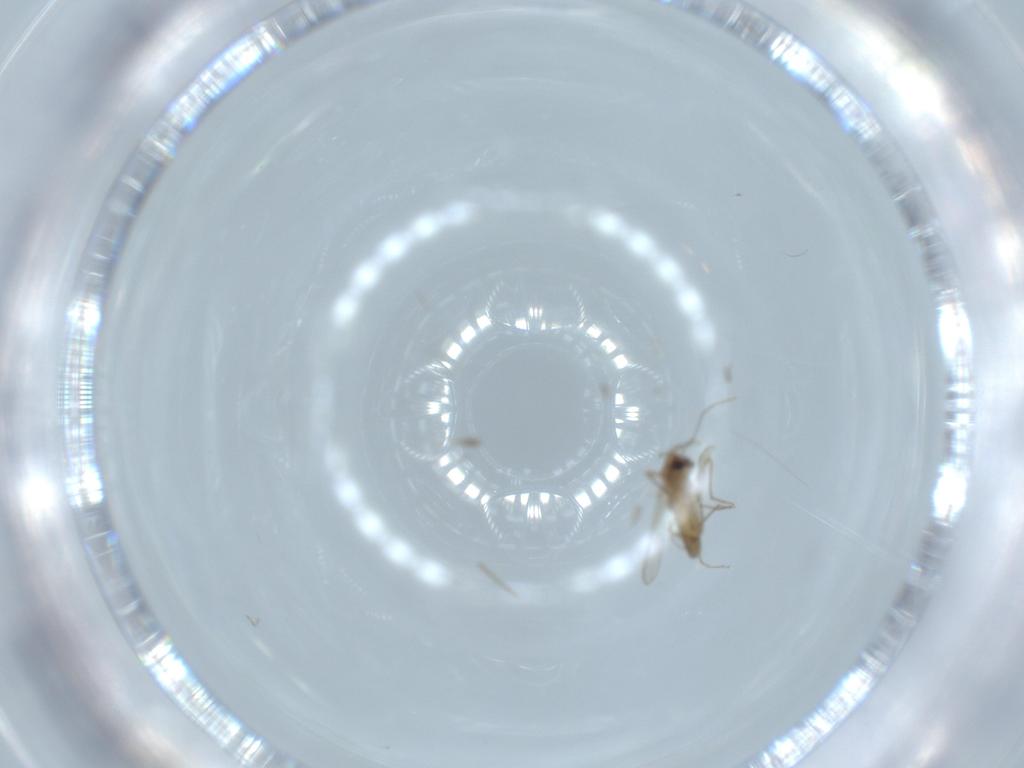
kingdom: Animalia
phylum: Arthropoda
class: Insecta
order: Diptera
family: Chironomidae
